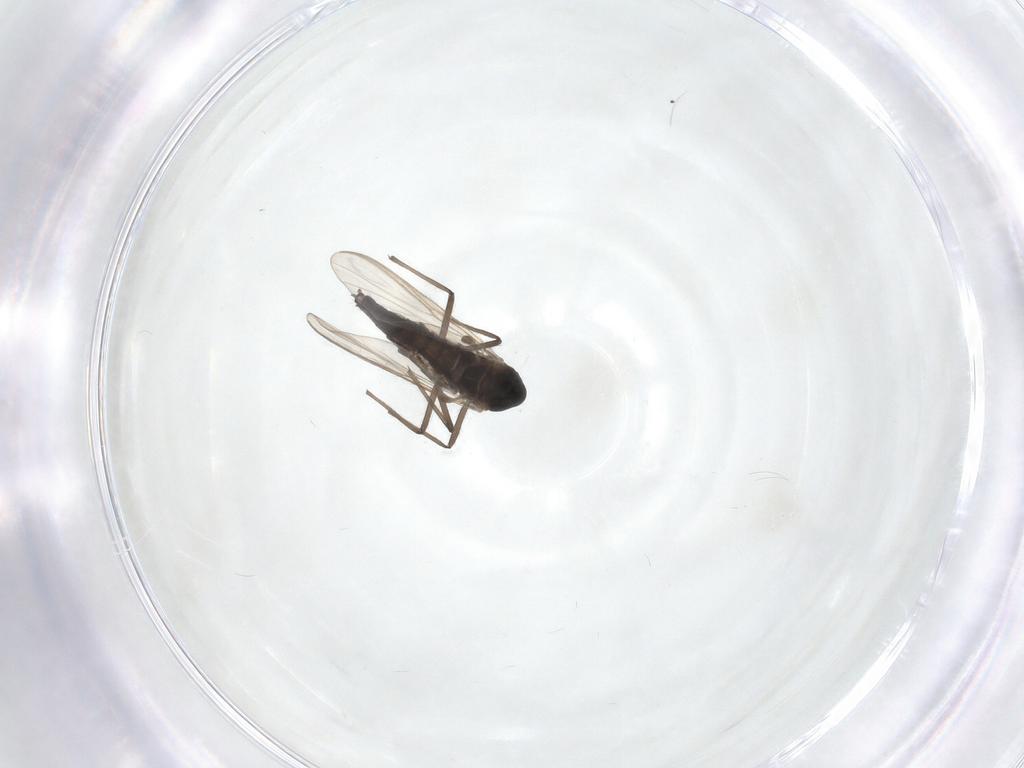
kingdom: Animalia
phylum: Arthropoda
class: Insecta
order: Diptera
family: Chironomidae
